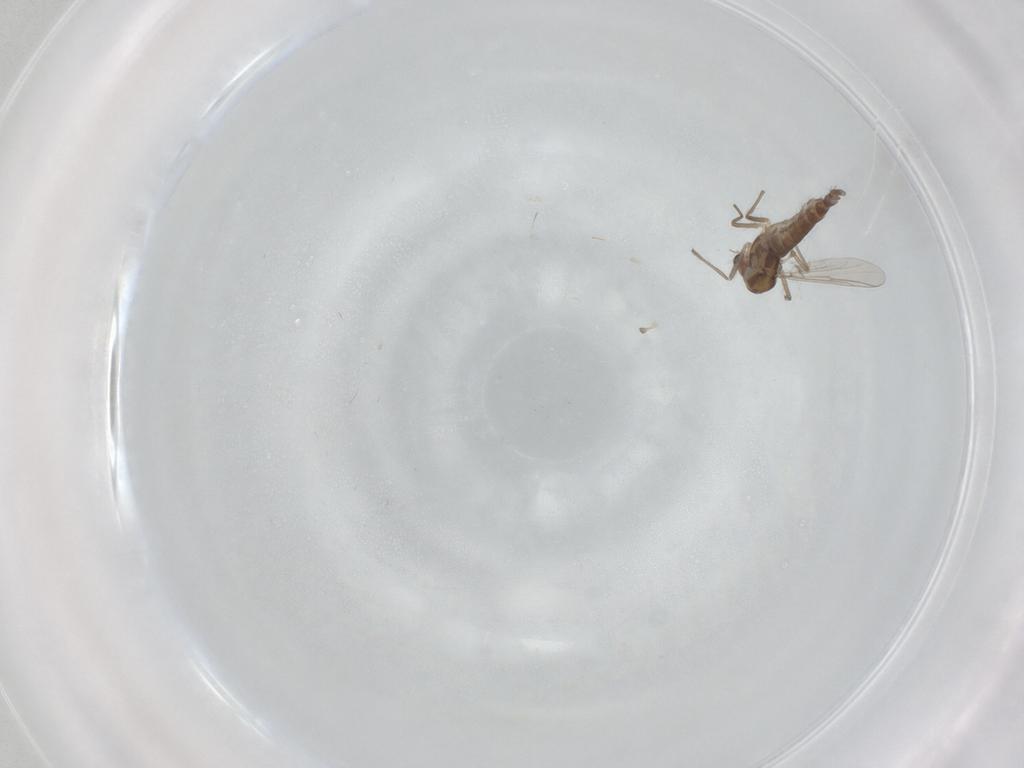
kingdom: Animalia
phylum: Arthropoda
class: Insecta
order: Diptera
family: Chironomidae
